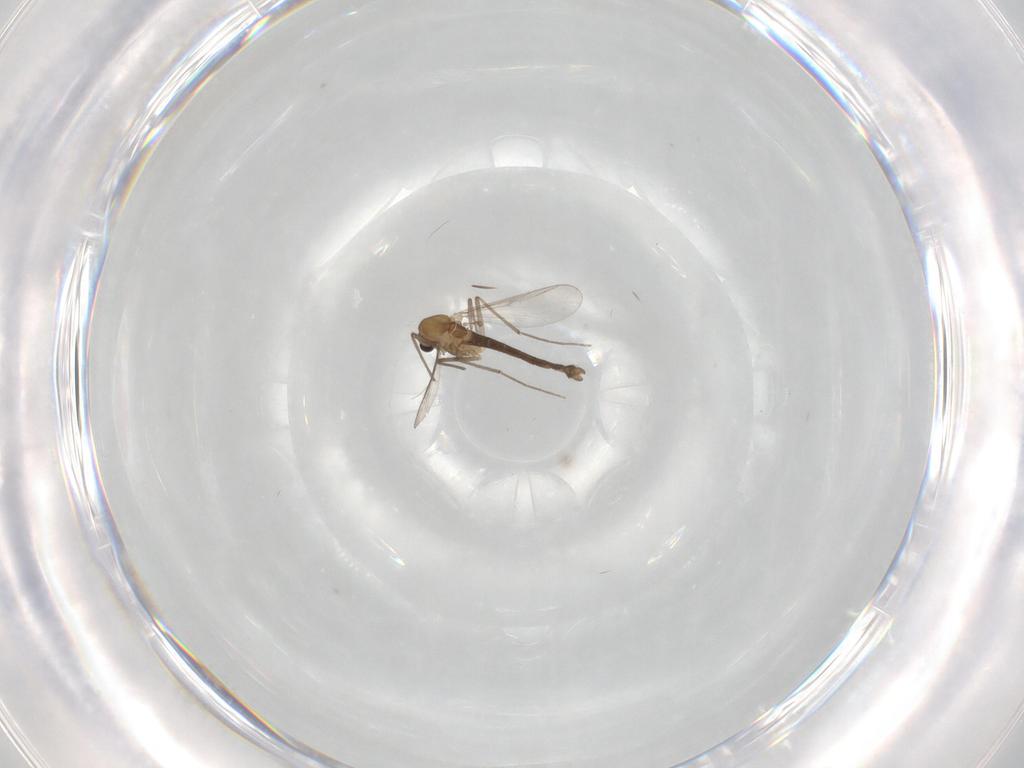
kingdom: Animalia
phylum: Arthropoda
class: Insecta
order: Diptera
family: Chironomidae
